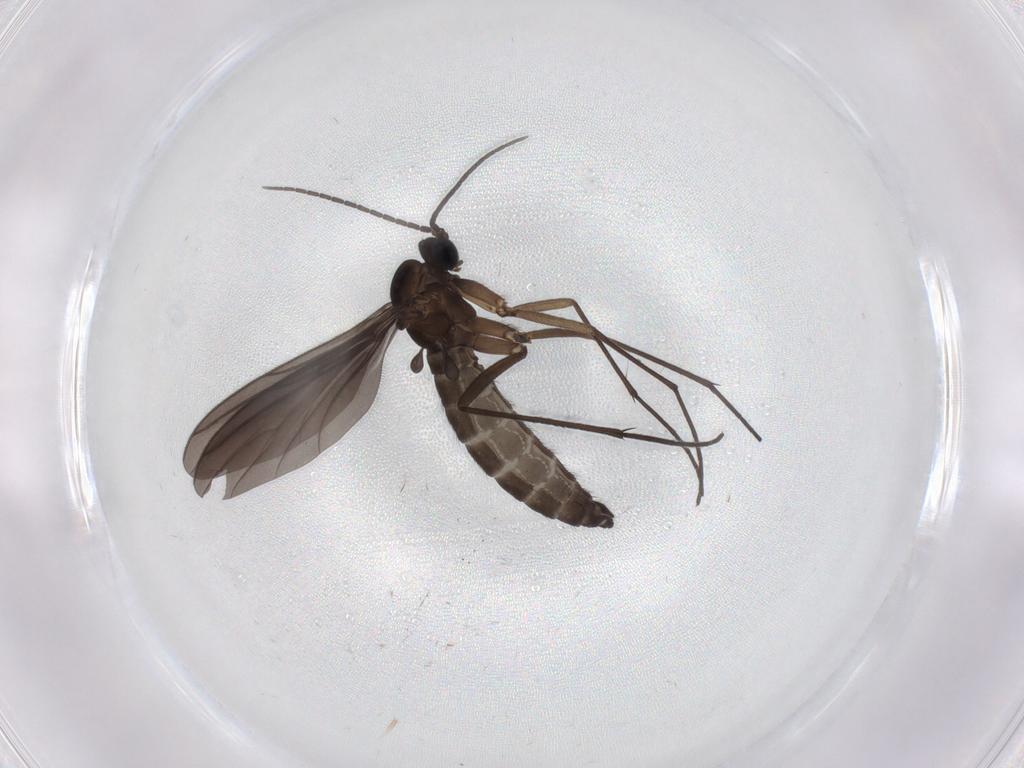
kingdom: Animalia
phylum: Arthropoda
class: Insecta
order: Diptera
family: Sciaridae
